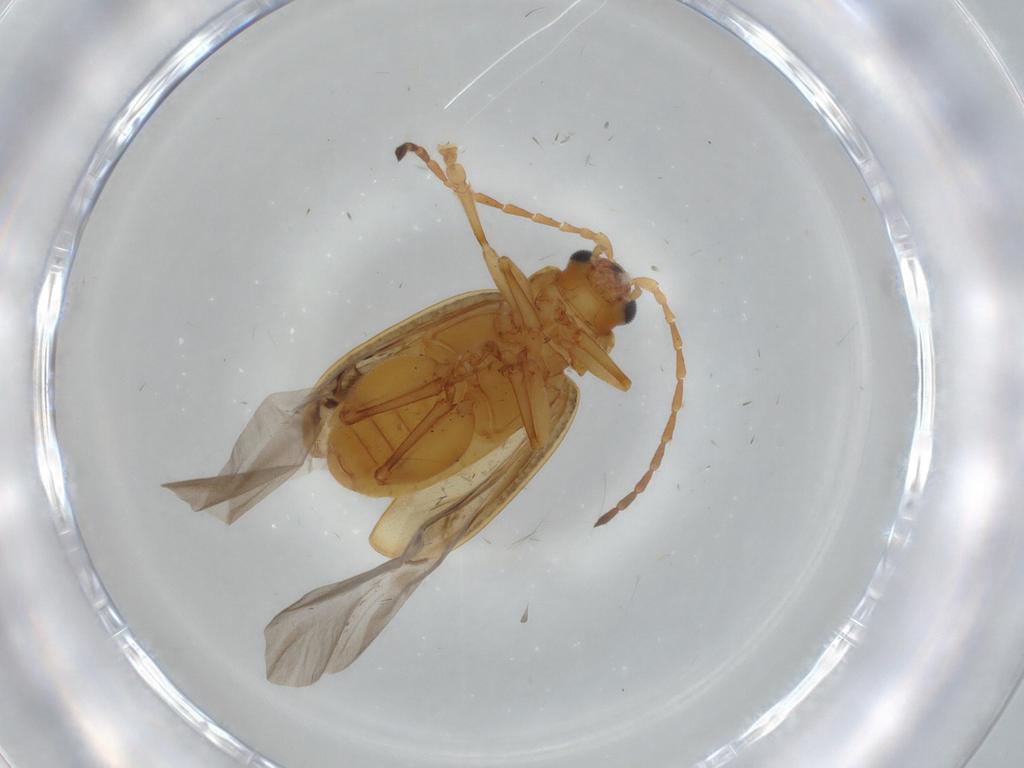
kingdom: Animalia
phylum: Arthropoda
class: Insecta
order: Coleoptera
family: Chrysomelidae
